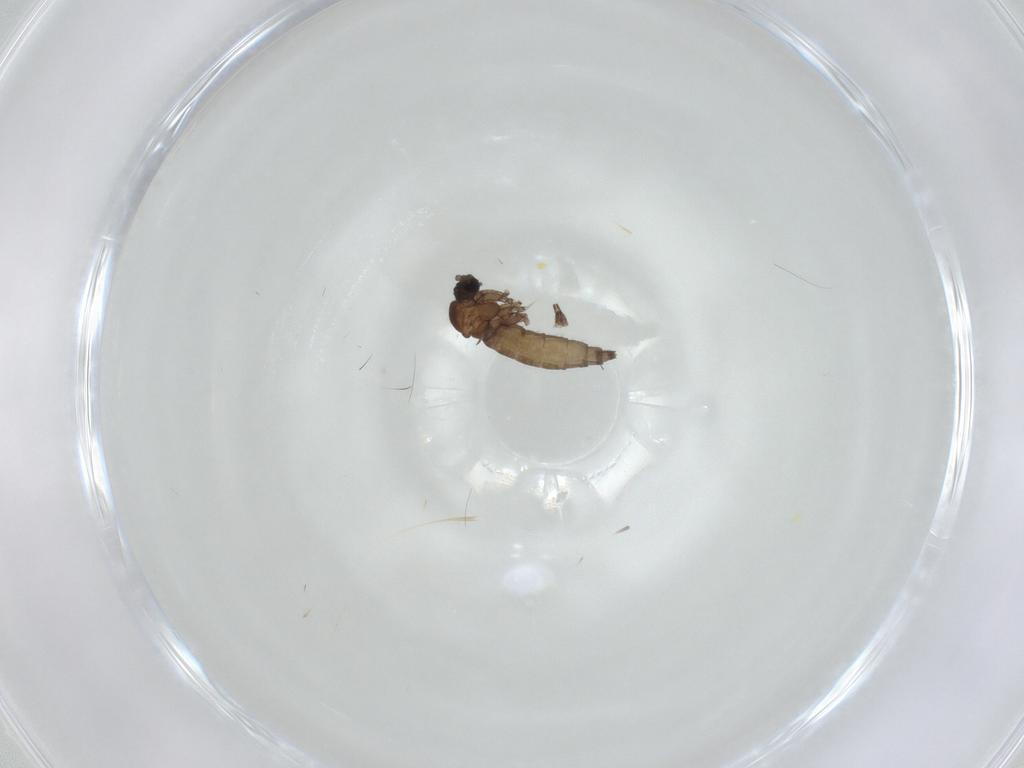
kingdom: Animalia
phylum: Arthropoda
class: Insecta
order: Diptera
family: Sciaridae
